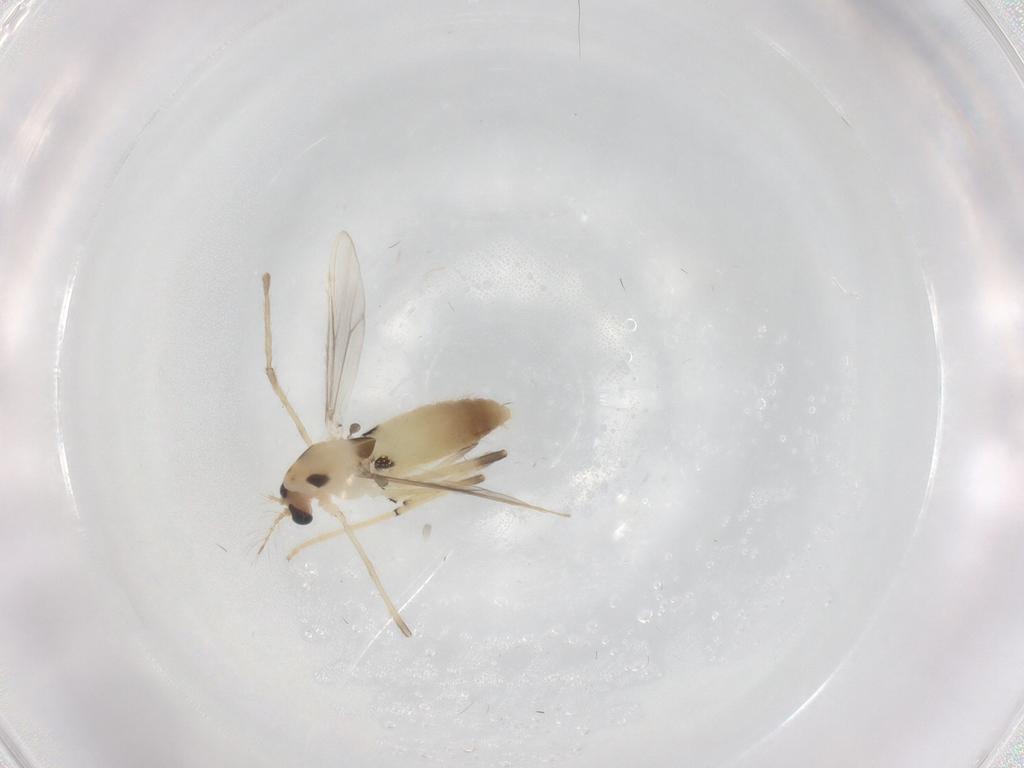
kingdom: Animalia
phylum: Arthropoda
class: Insecta
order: Diptera
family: Chironomidae
